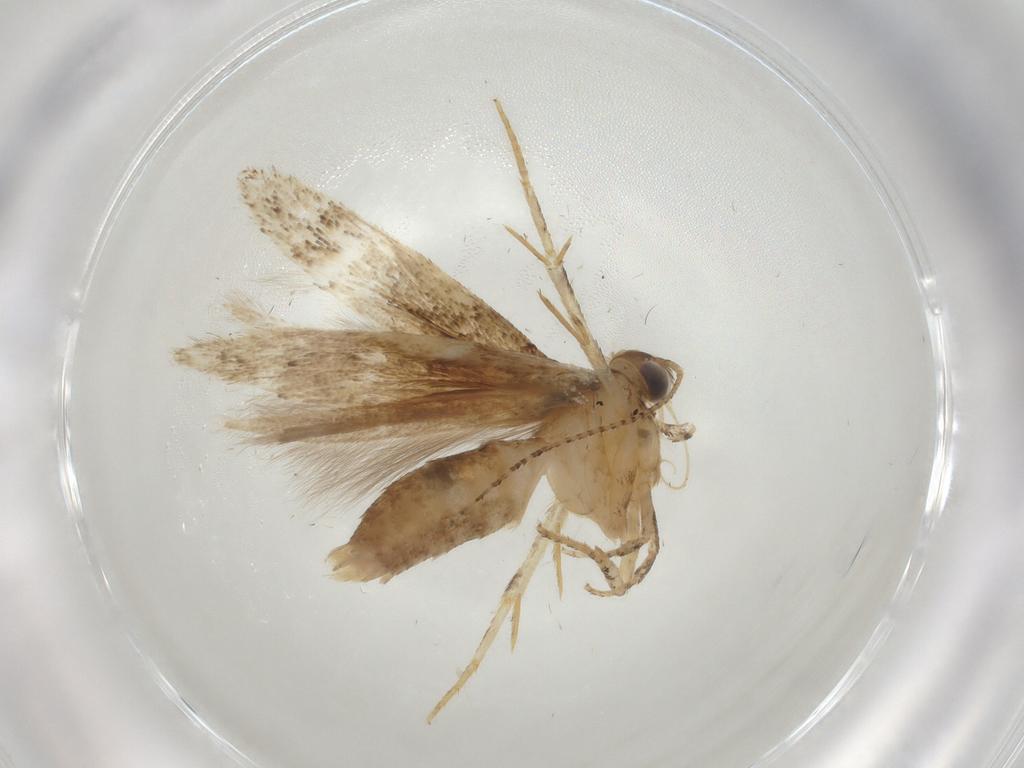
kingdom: Animalia
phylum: Arthropoda
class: Insecta
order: Lepidoptera
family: Gelechiidae
